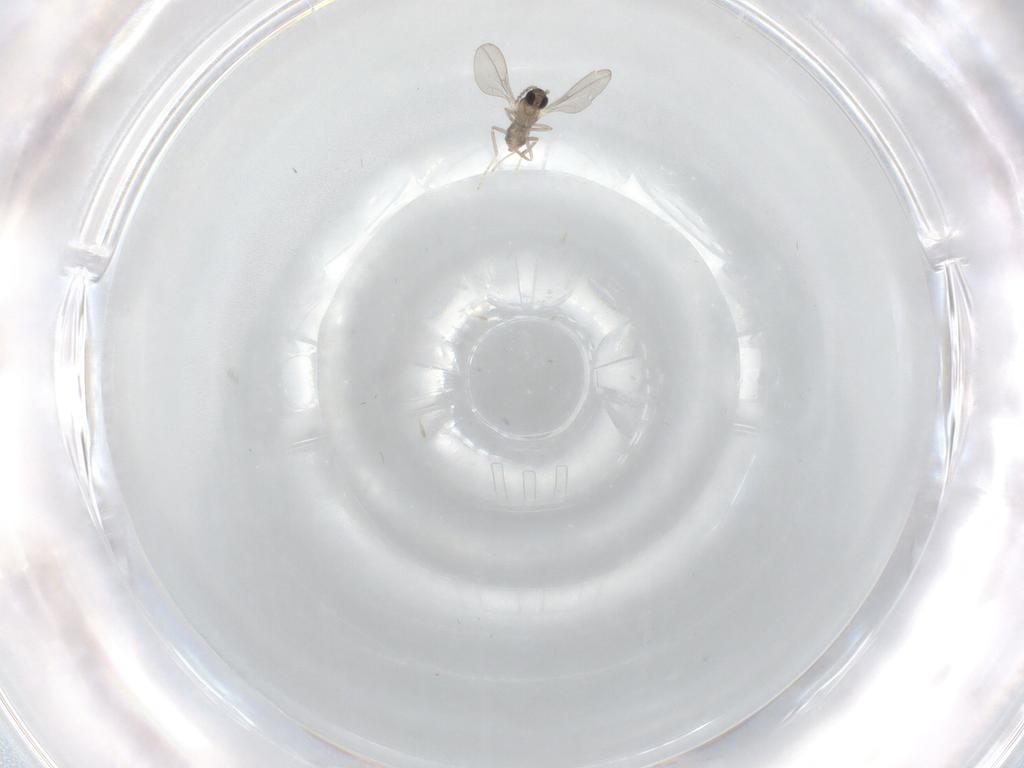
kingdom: Animalia
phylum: Arthropoda
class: Insecta
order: Diptera
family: Cecidomyiidae
